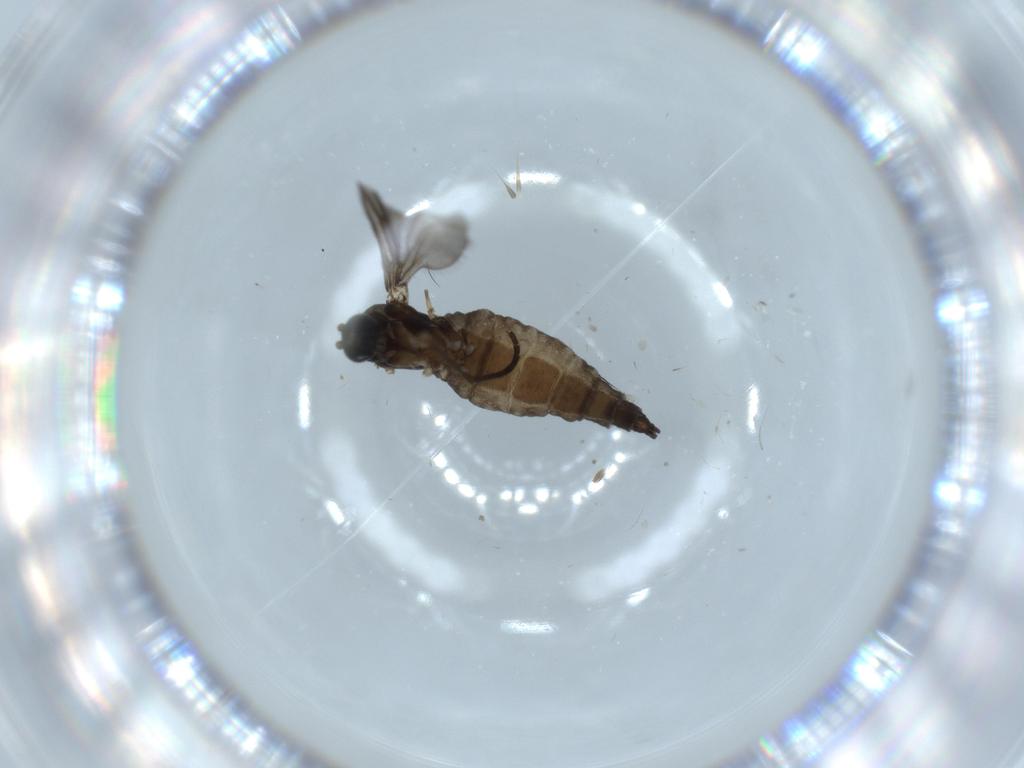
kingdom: Animalia
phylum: Arthropoda
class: Insecta
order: Diptera
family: Sciaridae
